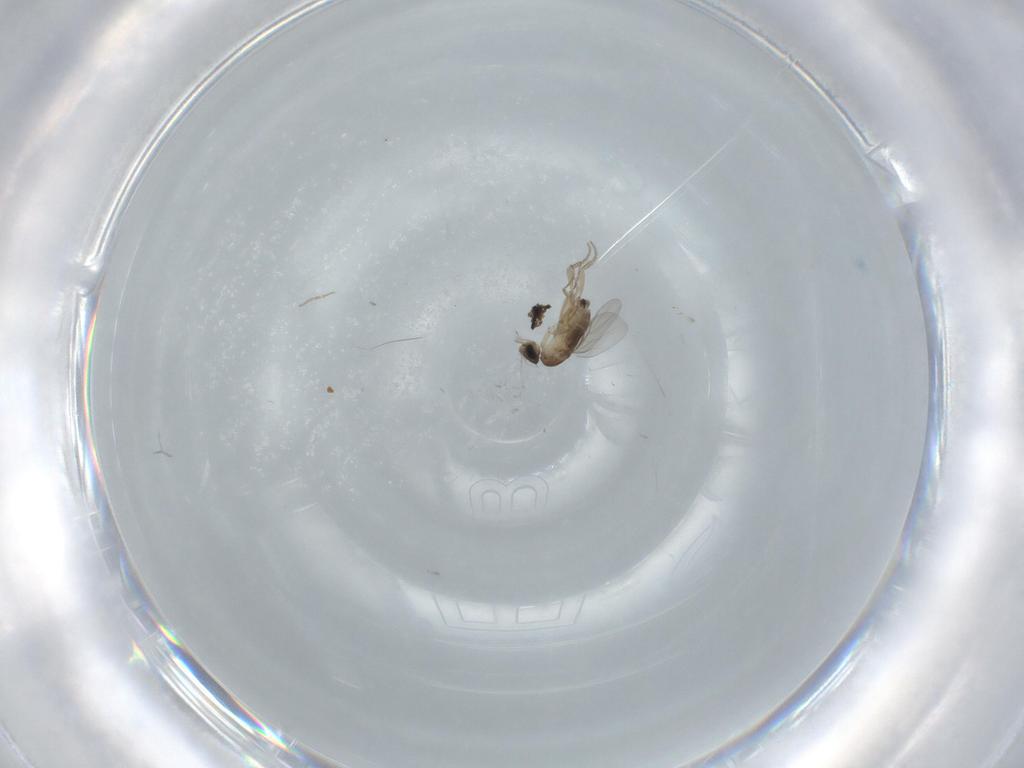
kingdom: Animalia
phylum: Arthropoda
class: Insecta
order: Diptera
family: Phoridae
